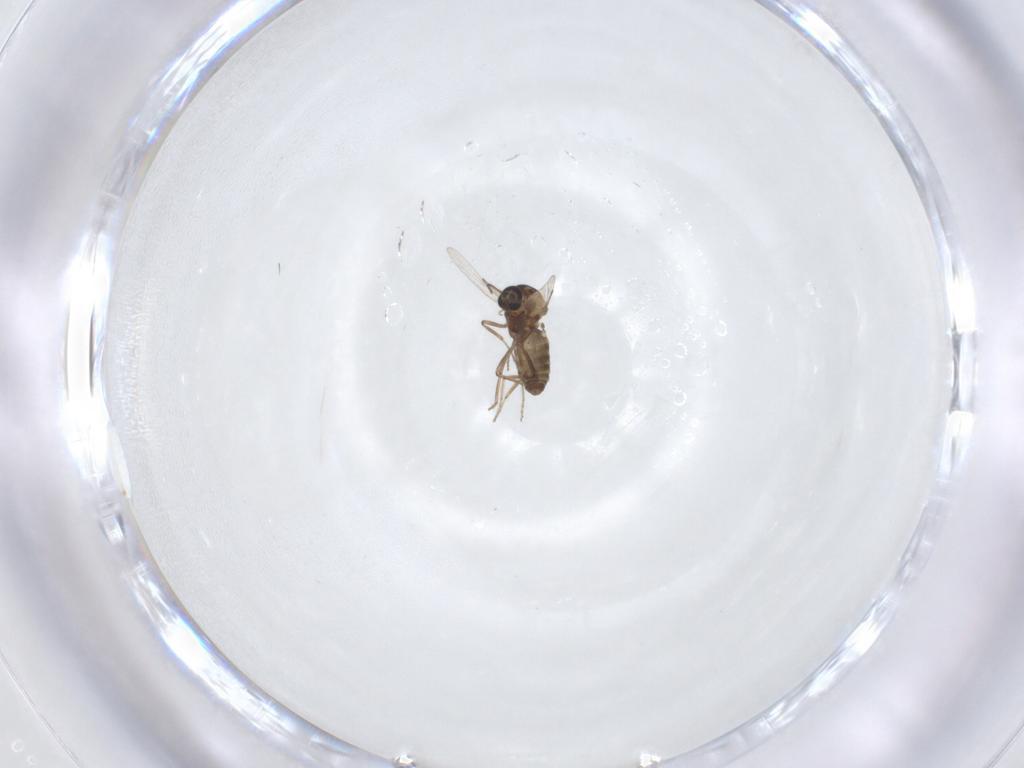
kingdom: Animalia
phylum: Arthropoda
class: Insecta
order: Diptera
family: Ceratopogonidae
